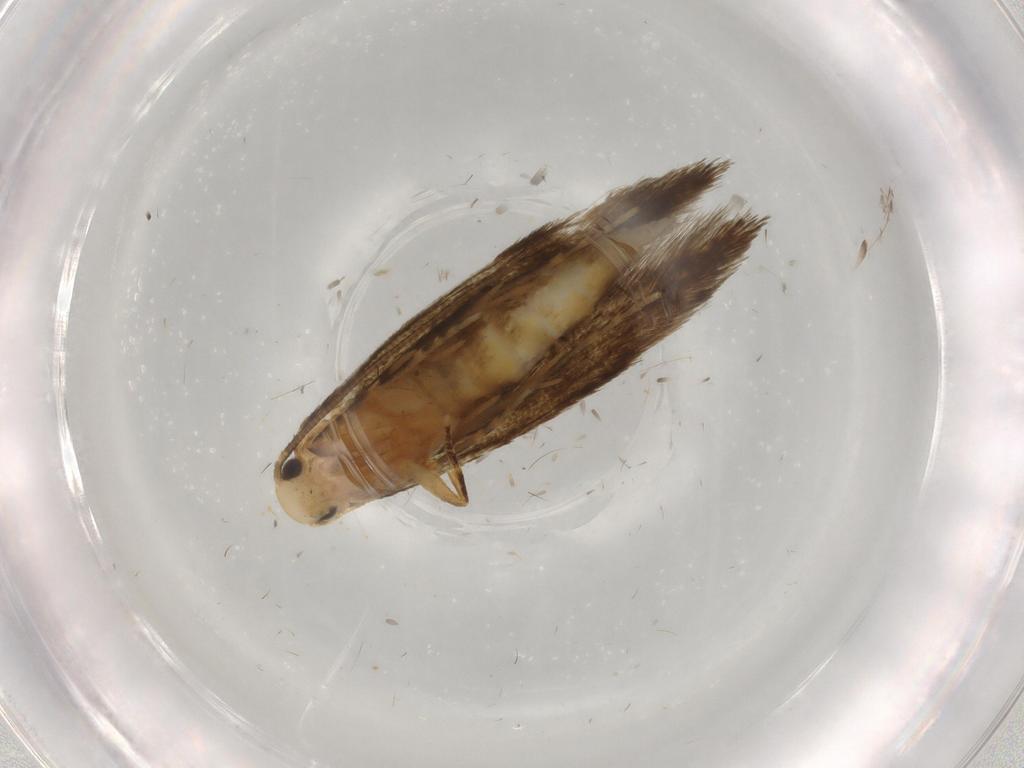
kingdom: Animalia
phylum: Arthropoda
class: Insecta
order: Lepidoptera
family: Tineidae
